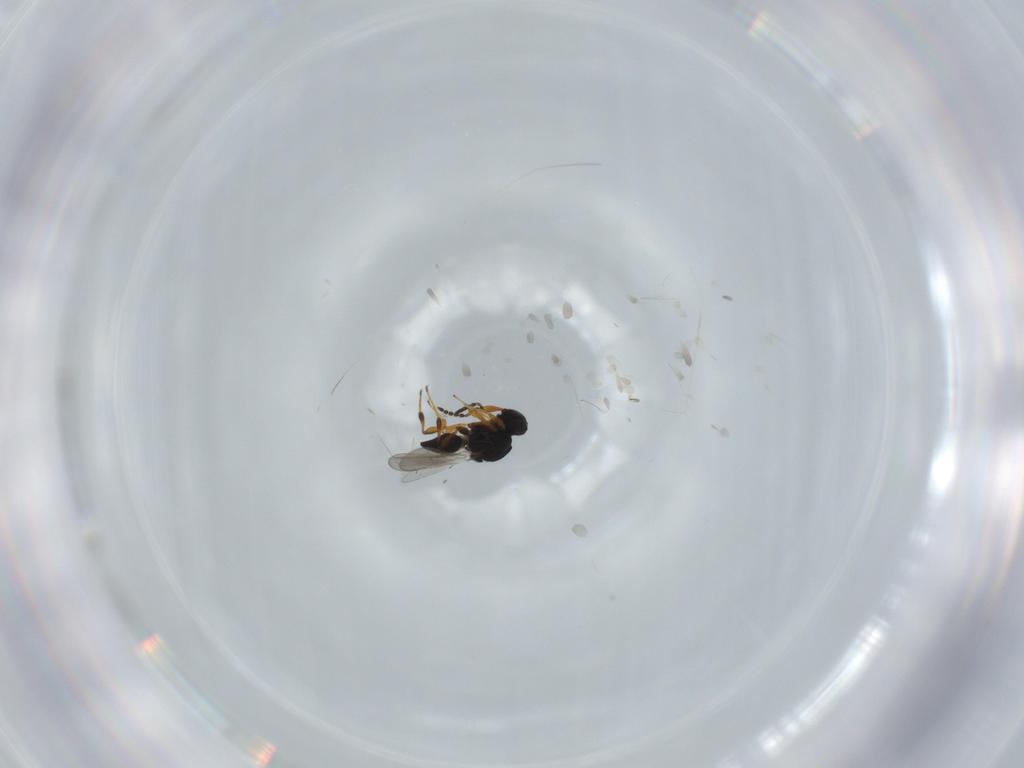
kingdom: Animalia
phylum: Arthropoda
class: Insecta
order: Hymenoptera
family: Platygastridae
